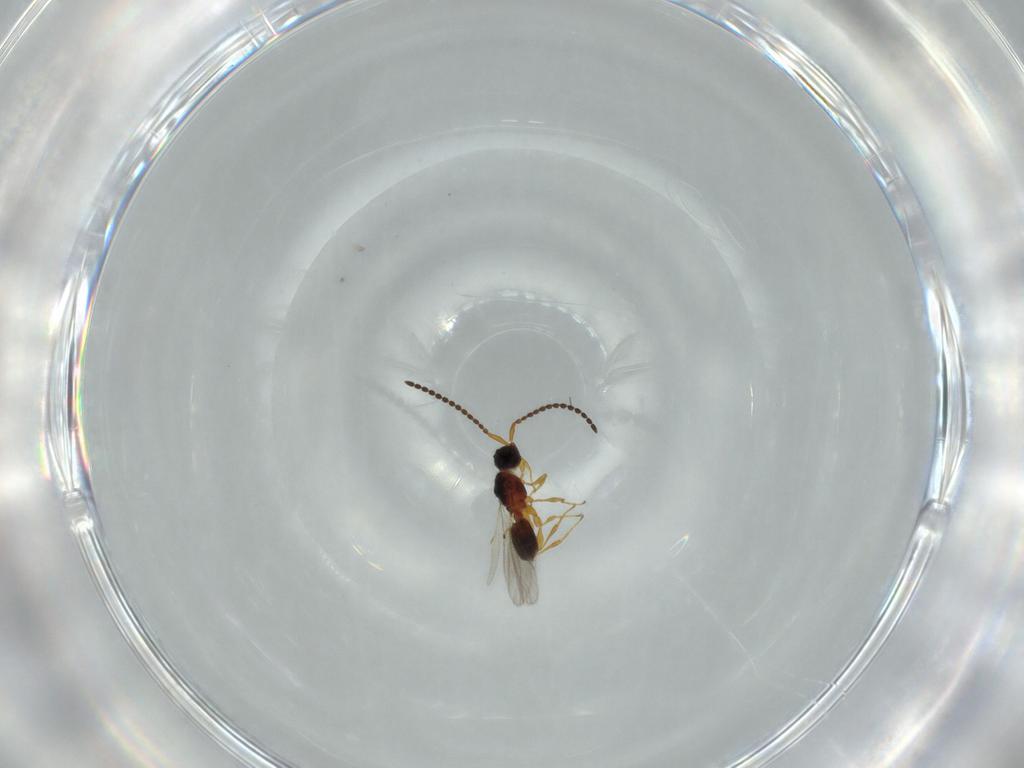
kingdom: Animalia
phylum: Arthropoda
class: Insecta
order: Hymenoptera
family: Diapriidae
